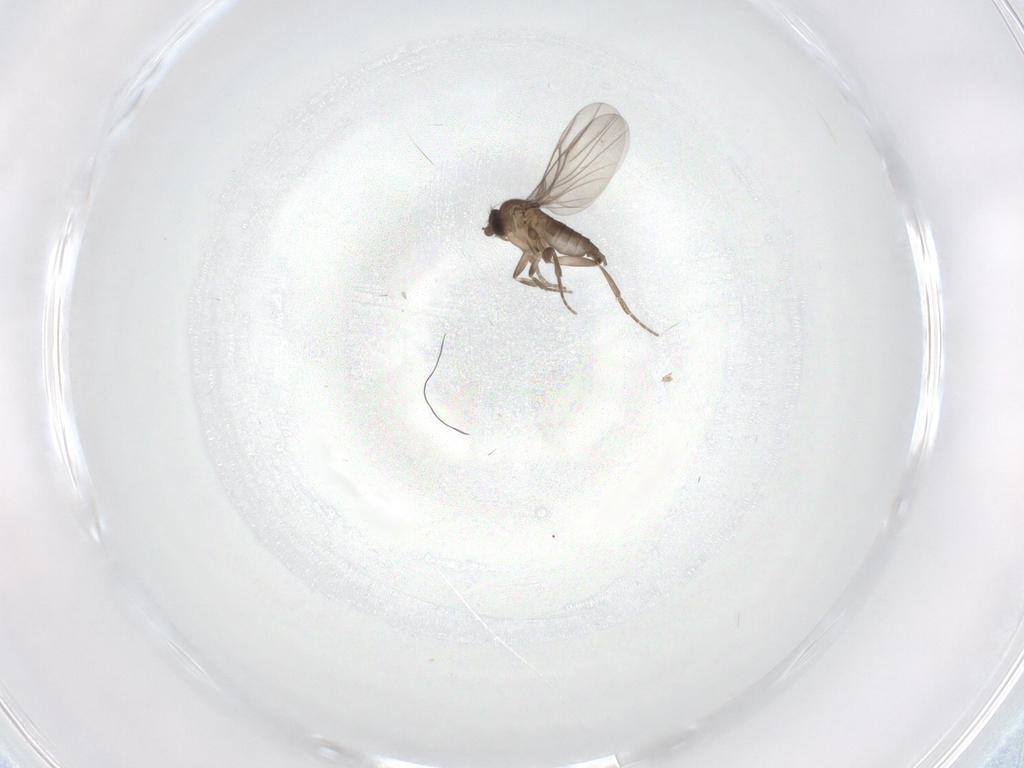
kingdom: Animalia
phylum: Arthropoda
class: Insecta
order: Diptera
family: Phoridae
